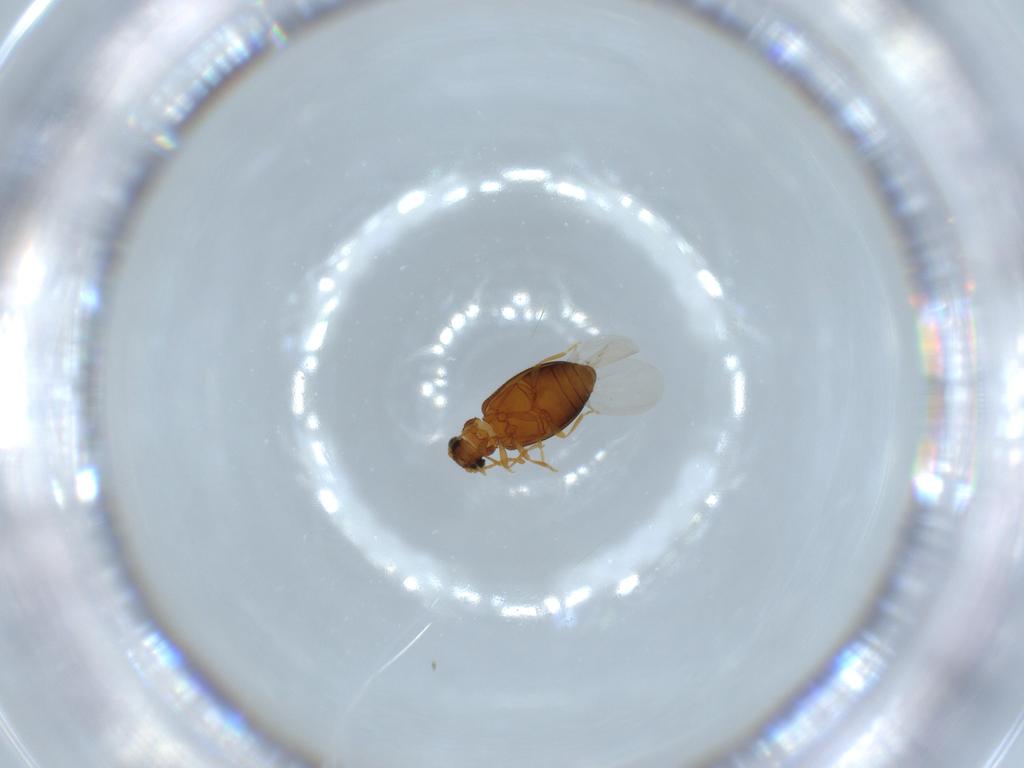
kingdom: Animalia
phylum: Arthropoda
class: Insecta
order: Coleoptera
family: Aderidae
